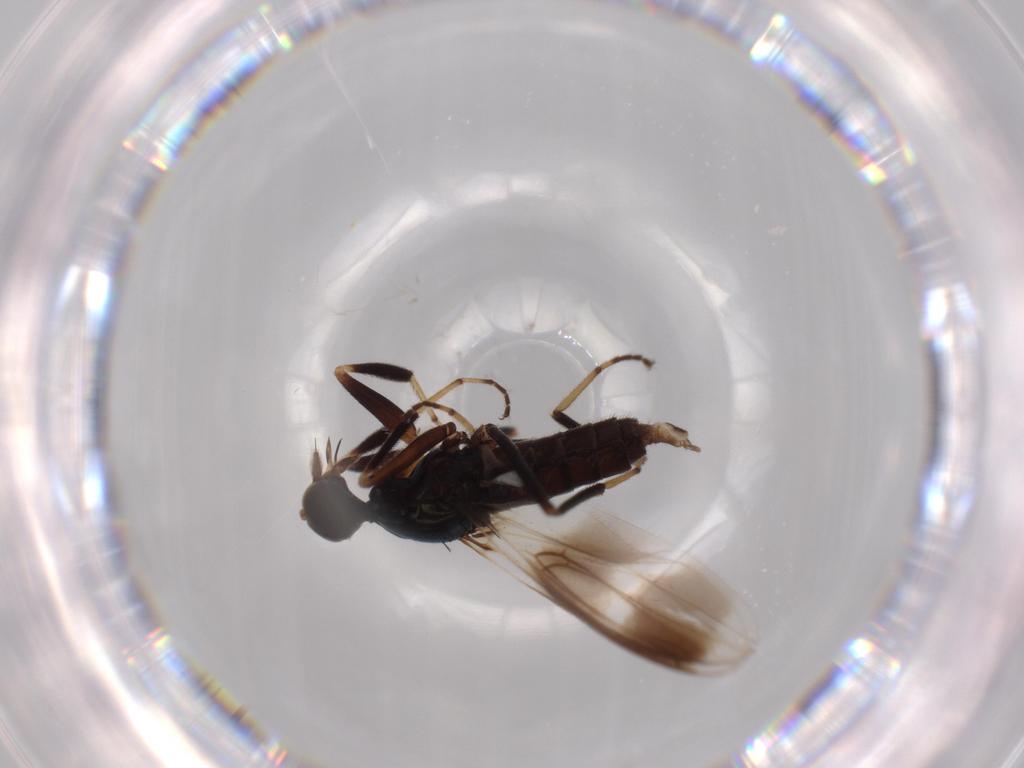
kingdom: Animalia
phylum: Arthropoda
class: Insecta
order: Diptera
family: Hybotidae
